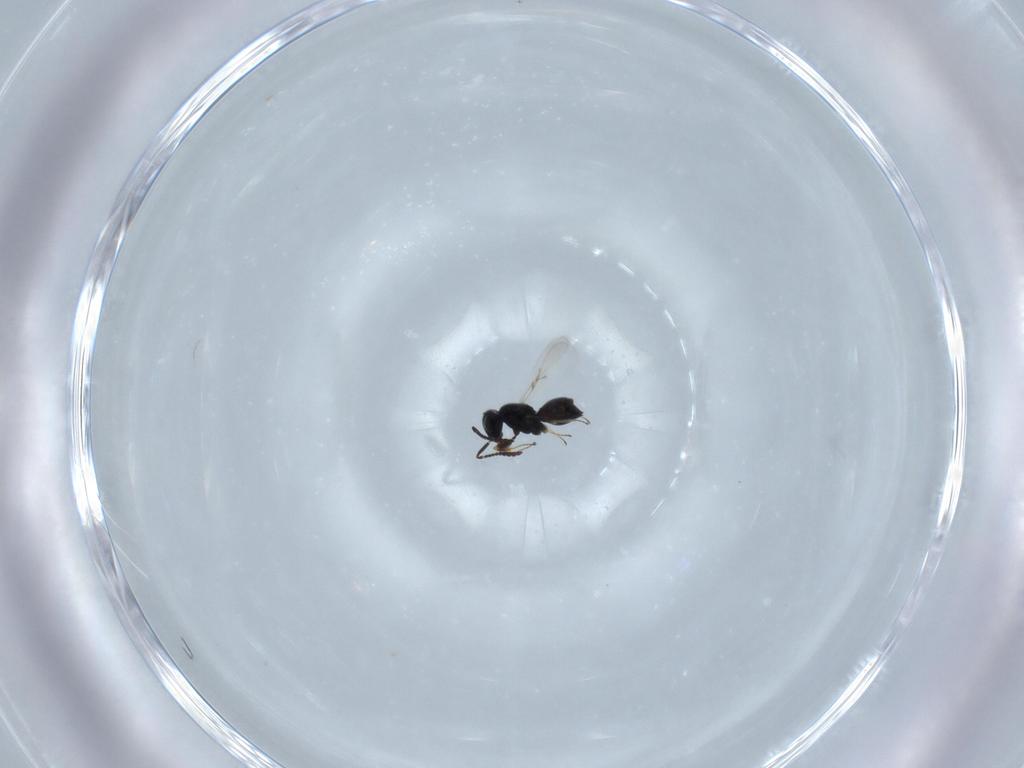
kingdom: Animalia
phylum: Arthropoda
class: Insecta
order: Hymenoptera
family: Scelionidae
